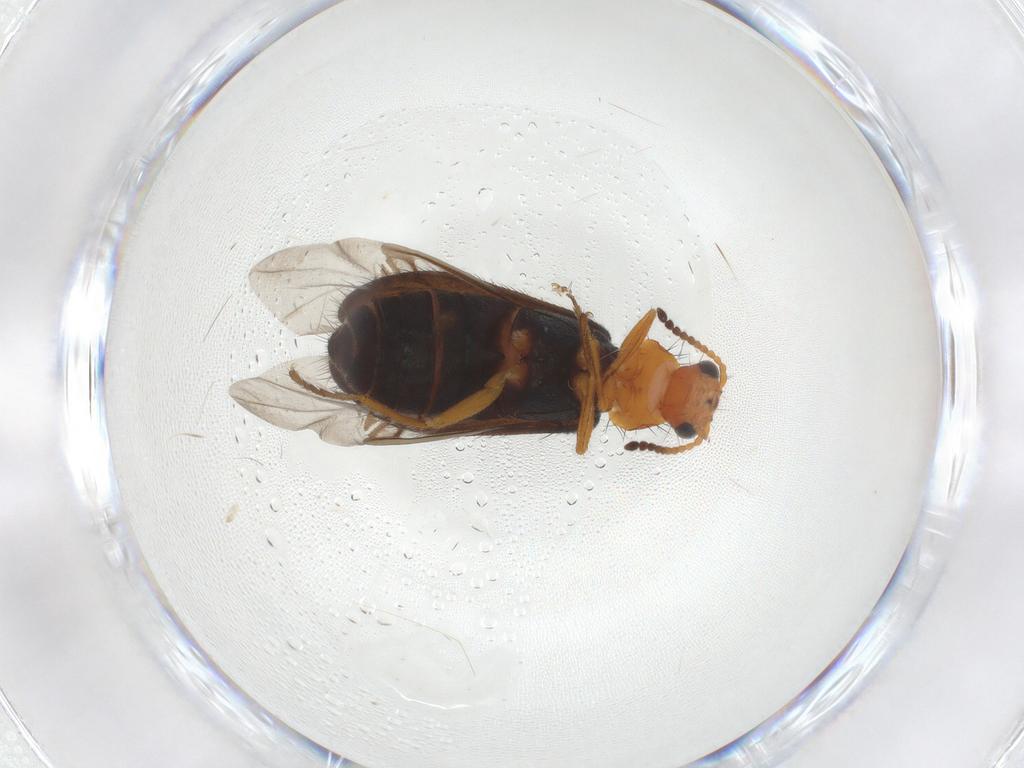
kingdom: Animalia
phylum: Arthropoda
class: Insecta
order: Coleoptera
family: Melyridae
